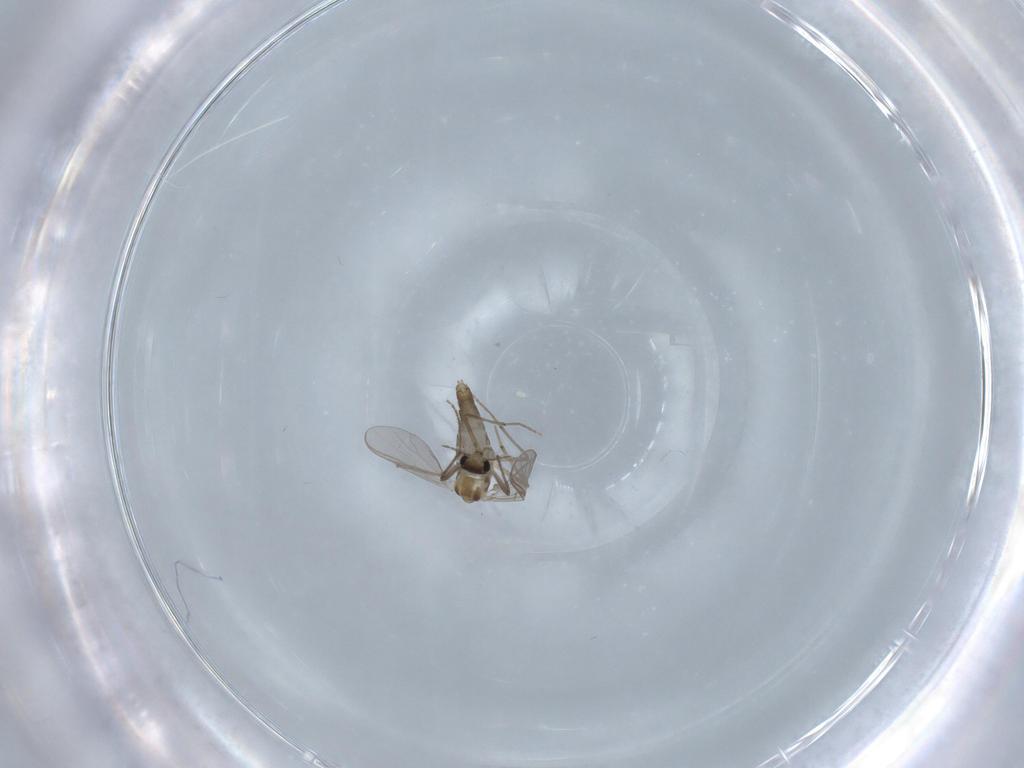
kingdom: Animalia
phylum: Arthropoda
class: Insecta
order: Diptera
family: Chironomidae
